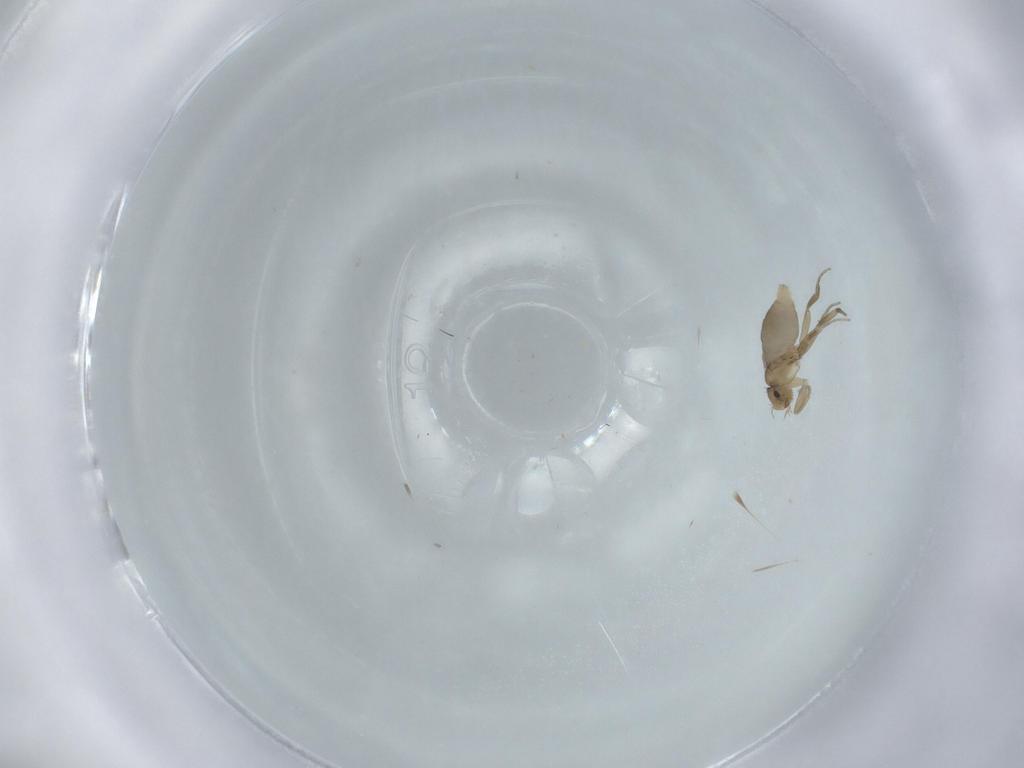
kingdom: Animalia
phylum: Arthropoda
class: Insecta
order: Diptera
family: Phoridae
